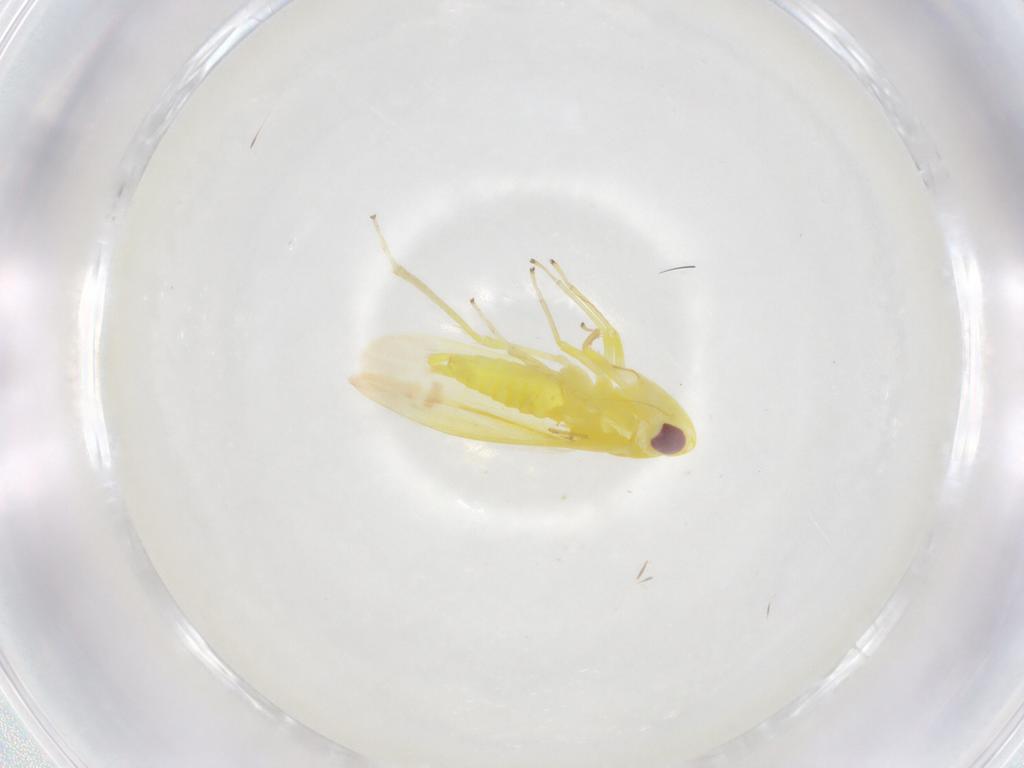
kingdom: Animalia
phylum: Arthropoda
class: Insecta
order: Hemiptera
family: Cicadellidae
